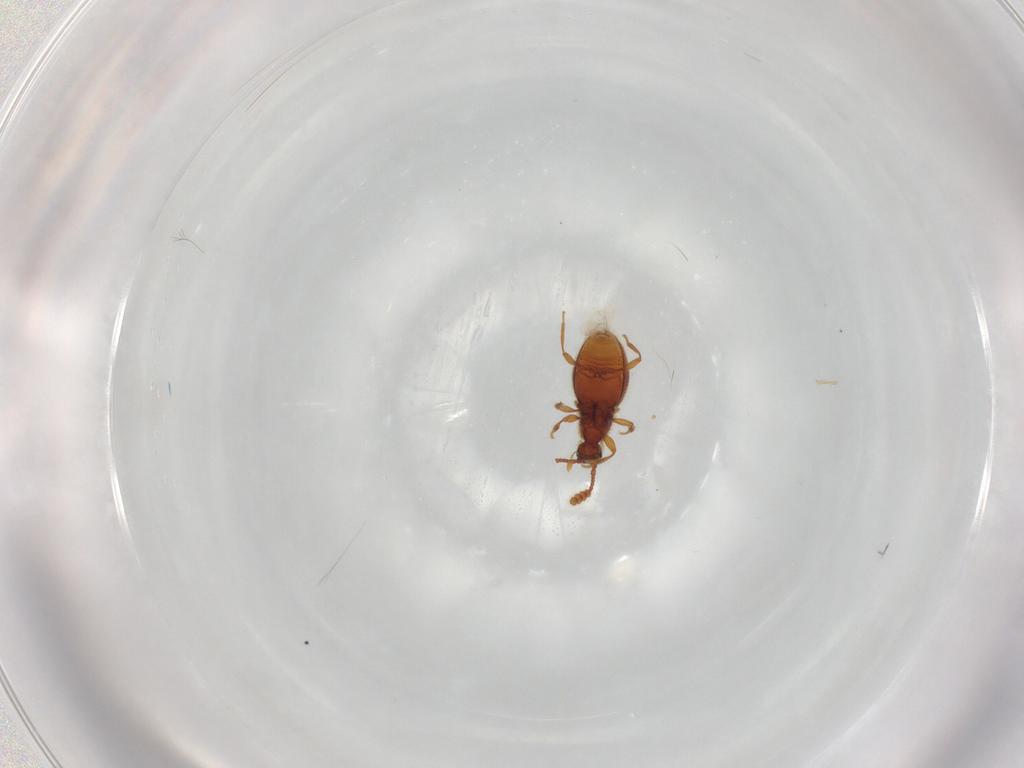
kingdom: Animalia
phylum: Arthropoda
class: Insecta
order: Coleoptera
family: Staphylinidae
